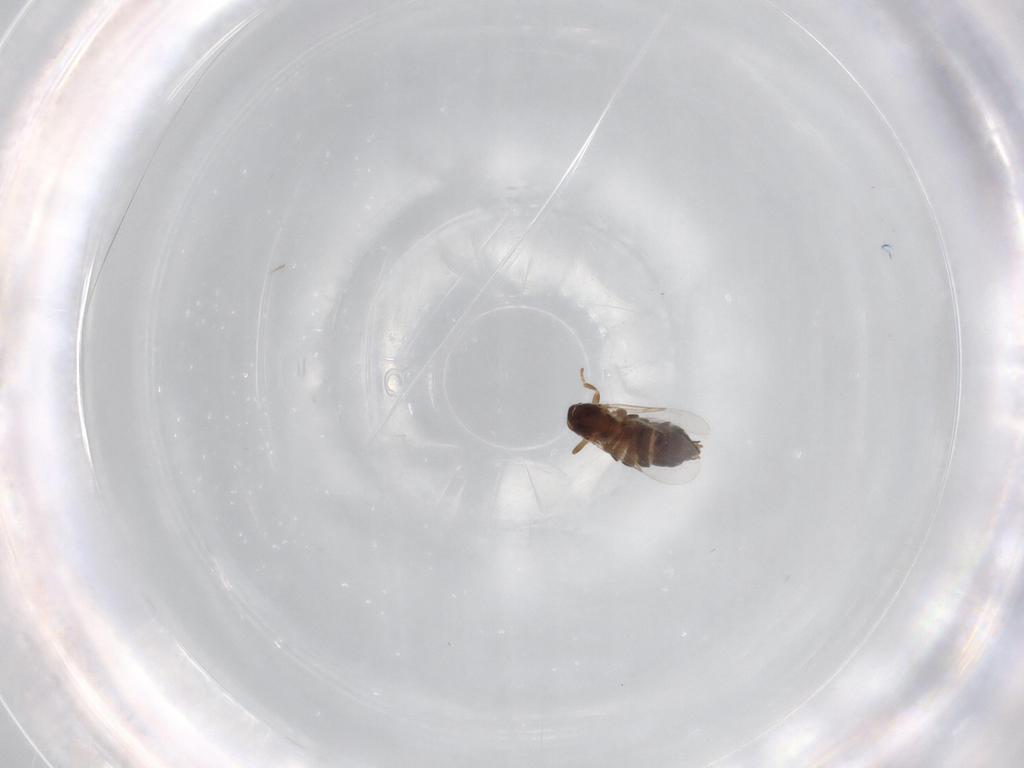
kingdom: Animalia
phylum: Arthropoda
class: Insecta
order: Diptera
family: Scatopsidae
